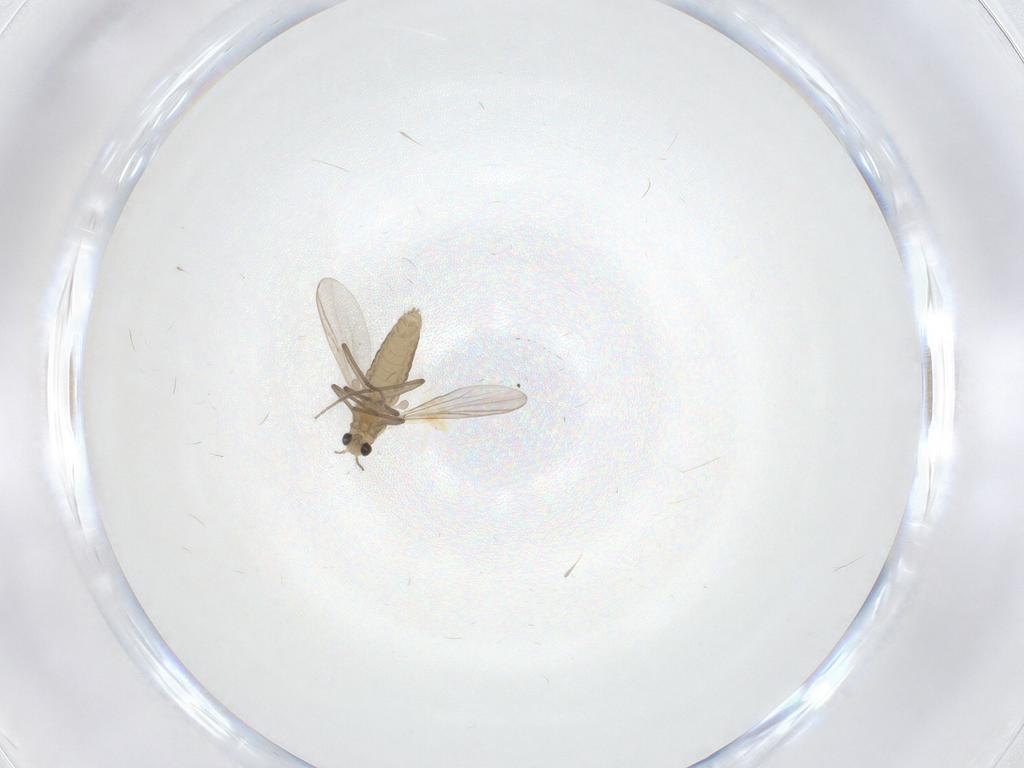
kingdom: Animalia
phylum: Arthropoda
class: Insecta
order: Diptera
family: Chironomidae
